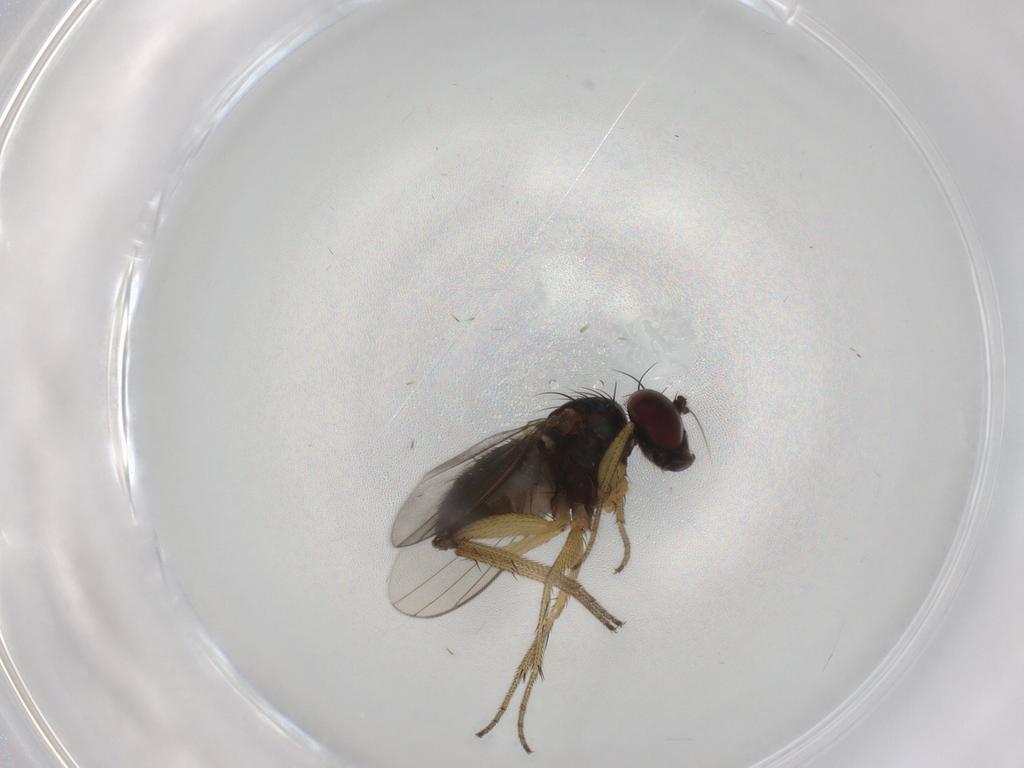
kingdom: Animalia
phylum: Arthropoda
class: Insecta
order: Diptera
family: Dolichopodidae
